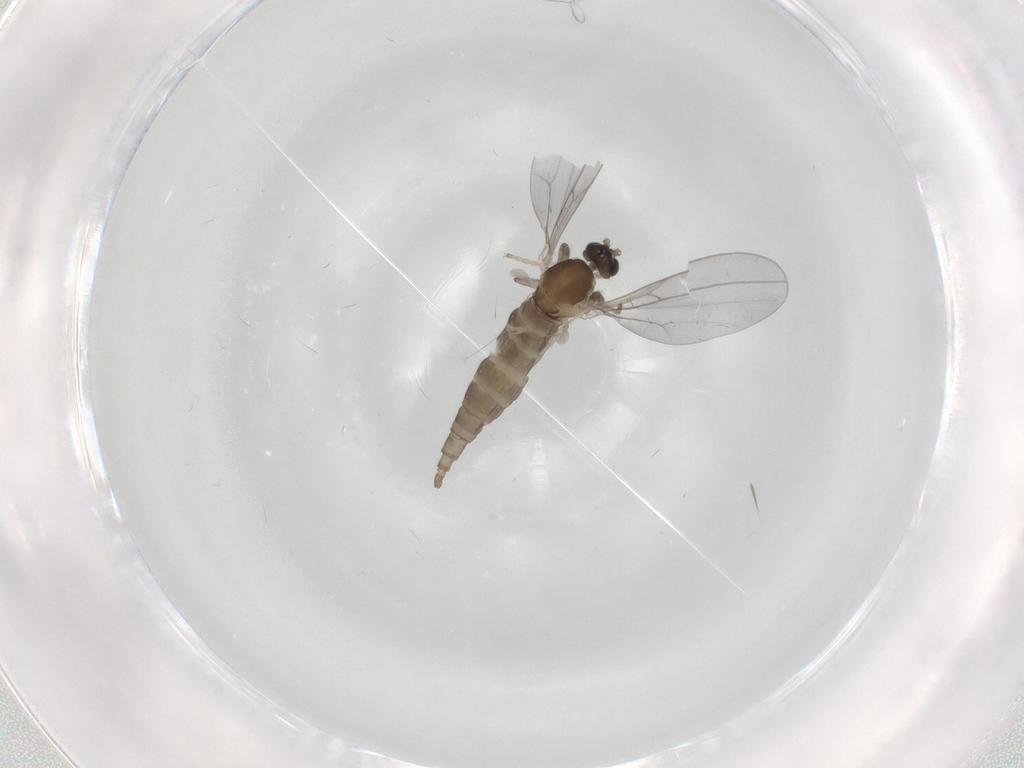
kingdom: Animalia
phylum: Arthropoda
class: Insecta
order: Diptera
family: Cecidomyiidae
